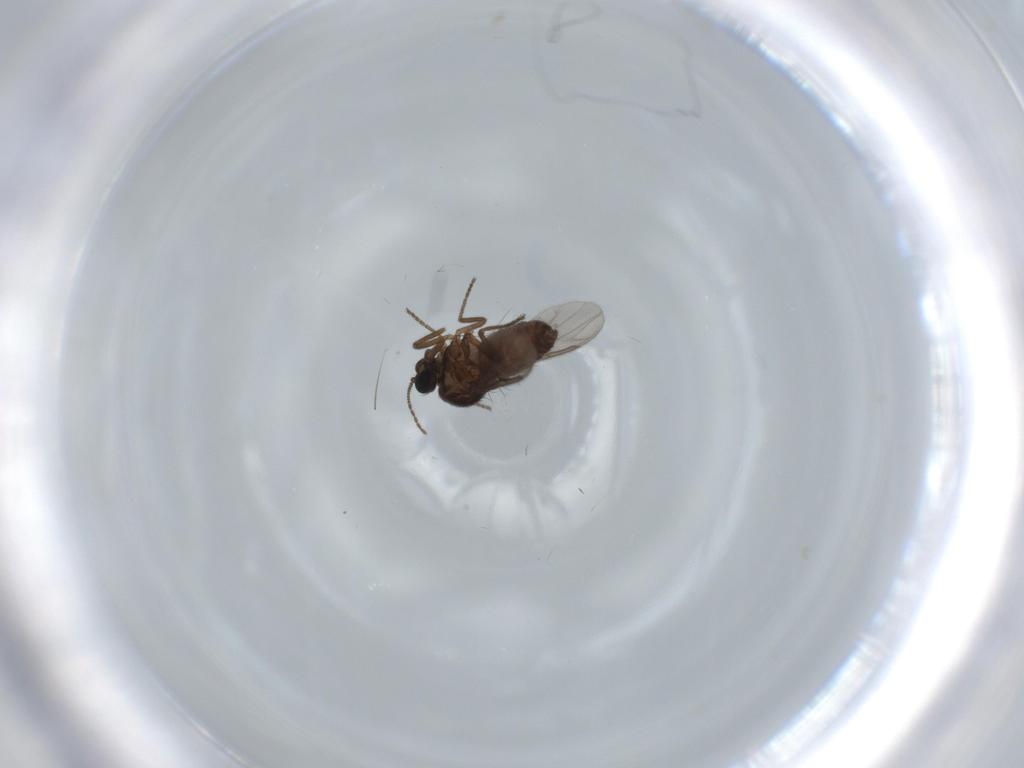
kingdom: Animalia
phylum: Arthropoda
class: Insecta
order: Diptera
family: Ceratopogonidae
